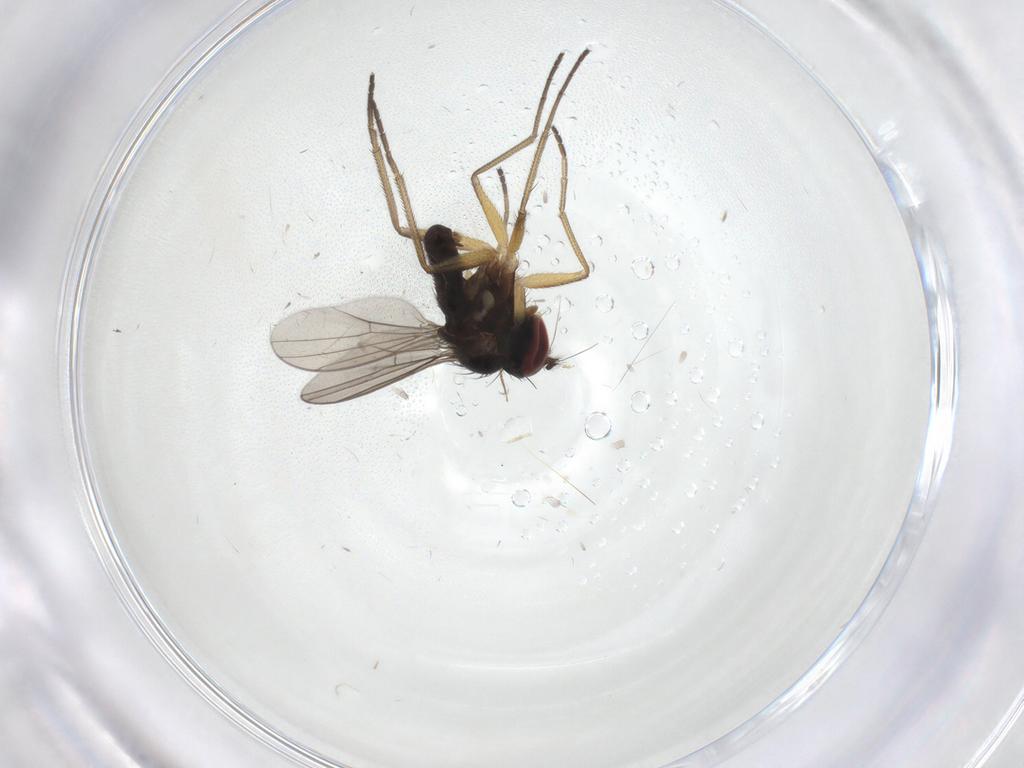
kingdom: Animalia
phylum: Arthropoda
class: Insecta
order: Diptera
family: Dolichopodidae
